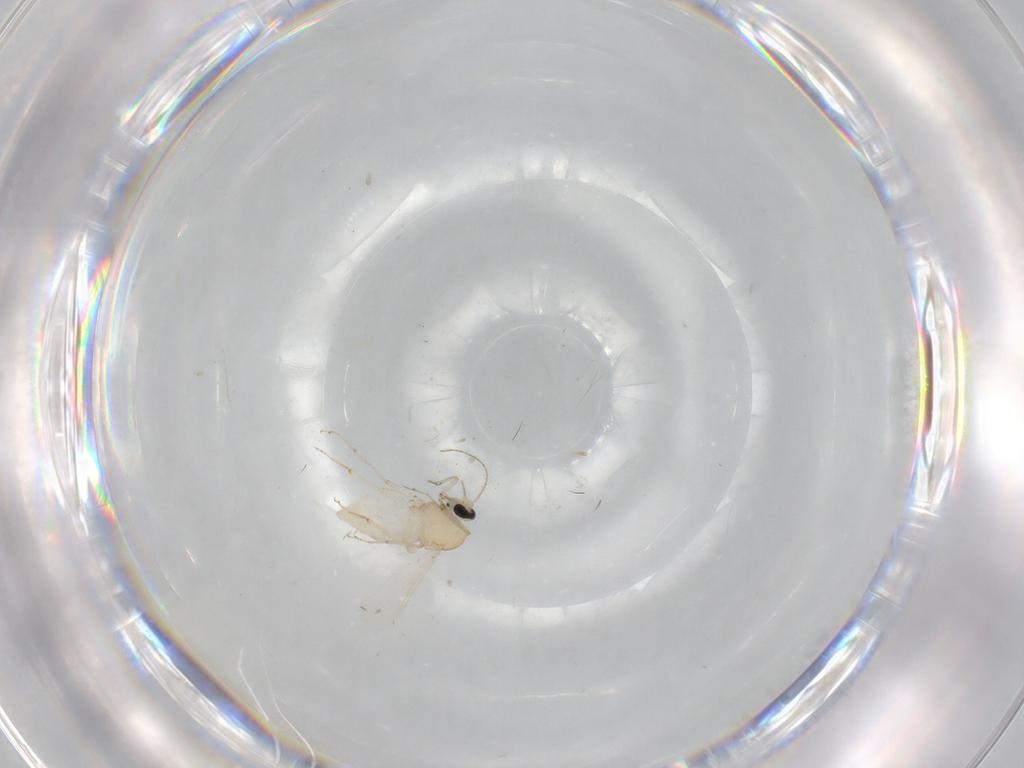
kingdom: Animalia
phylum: Arthropoda
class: Insecta
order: Diptera
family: Ceratopogonidae
